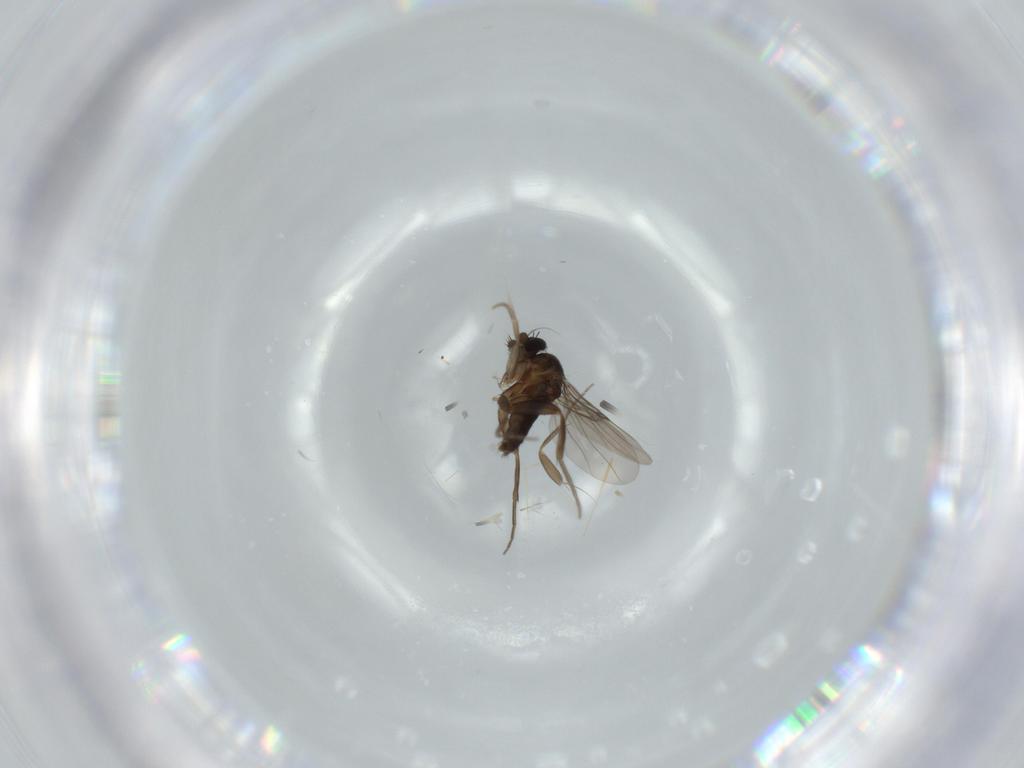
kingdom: Animalia
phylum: Arthropoda
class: Insecta
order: Diptera
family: Phoridae
